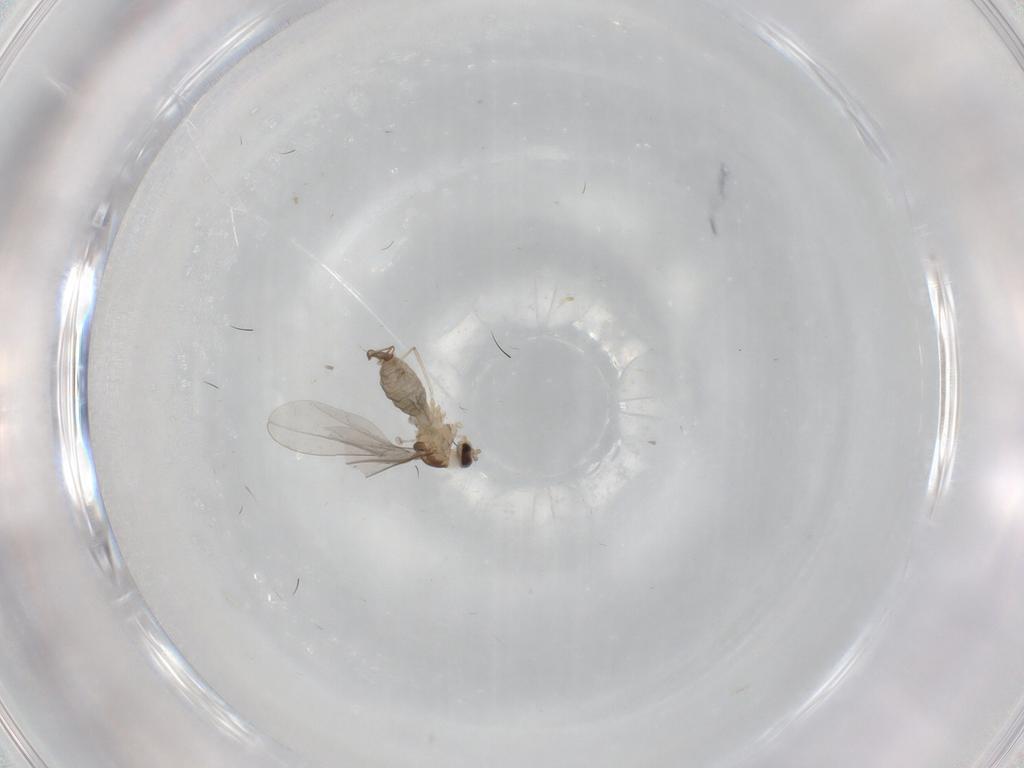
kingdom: Animalia
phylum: Arthropoda
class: Insecta
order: Diptera
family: Cecidomyiidae
